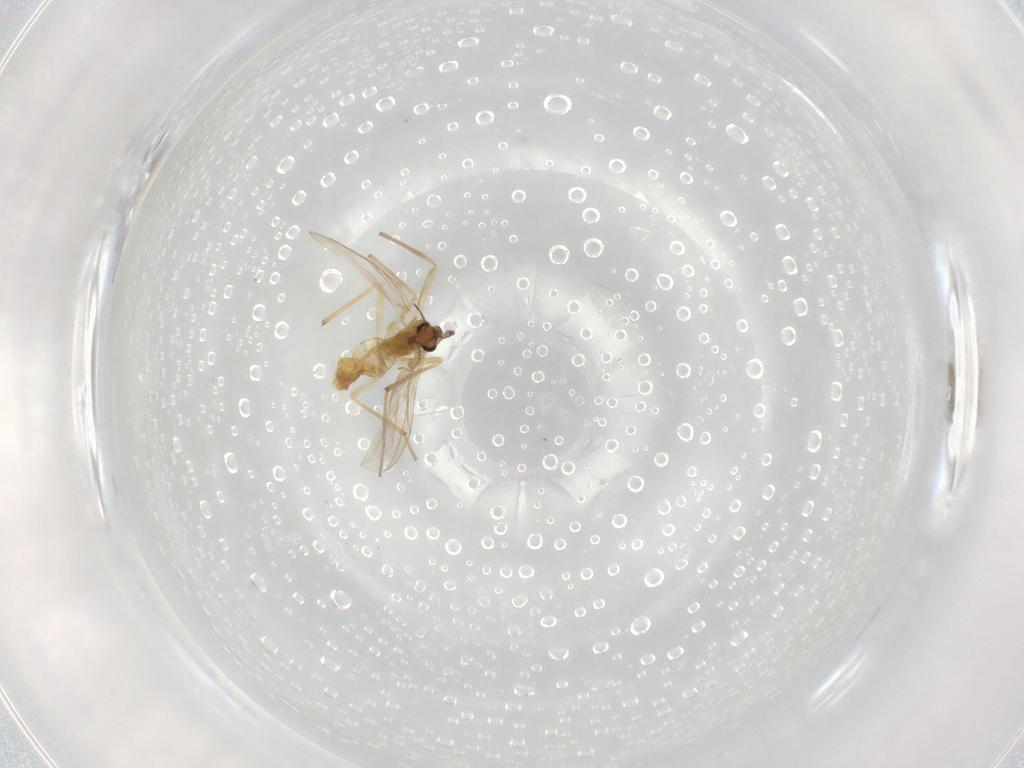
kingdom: Animalia
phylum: Arthropoda
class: Insecta
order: Diptera
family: Chironomidae
